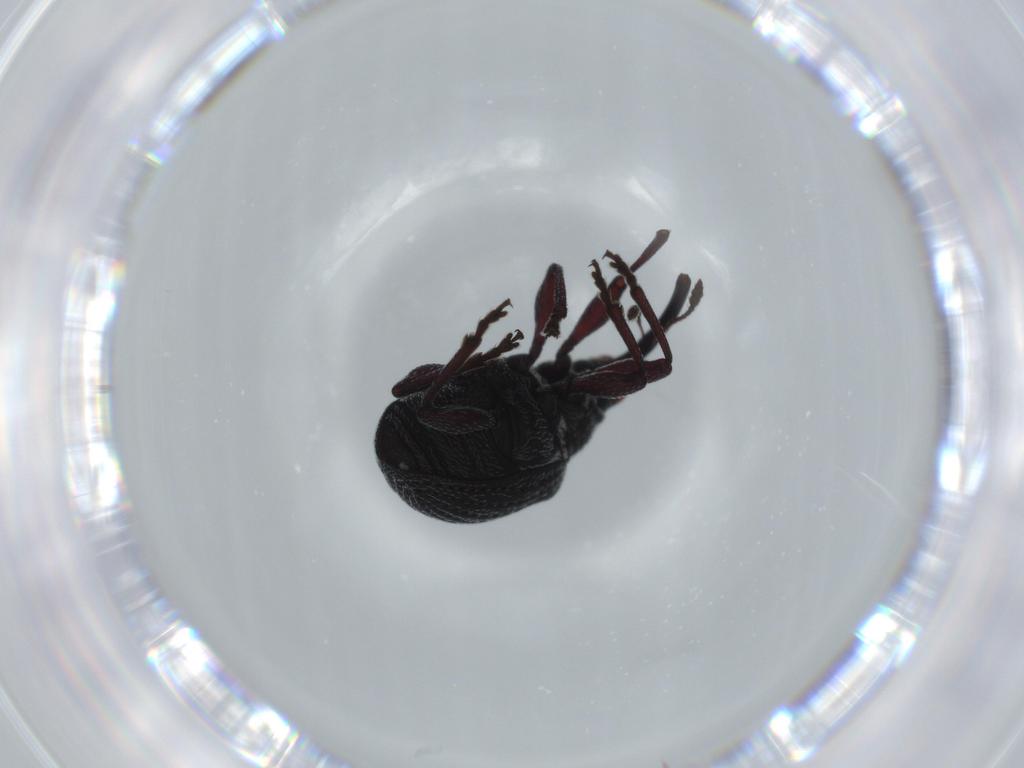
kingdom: Animalia
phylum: Arthropoda
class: Insecta
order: Coleoptera
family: Brentidae
